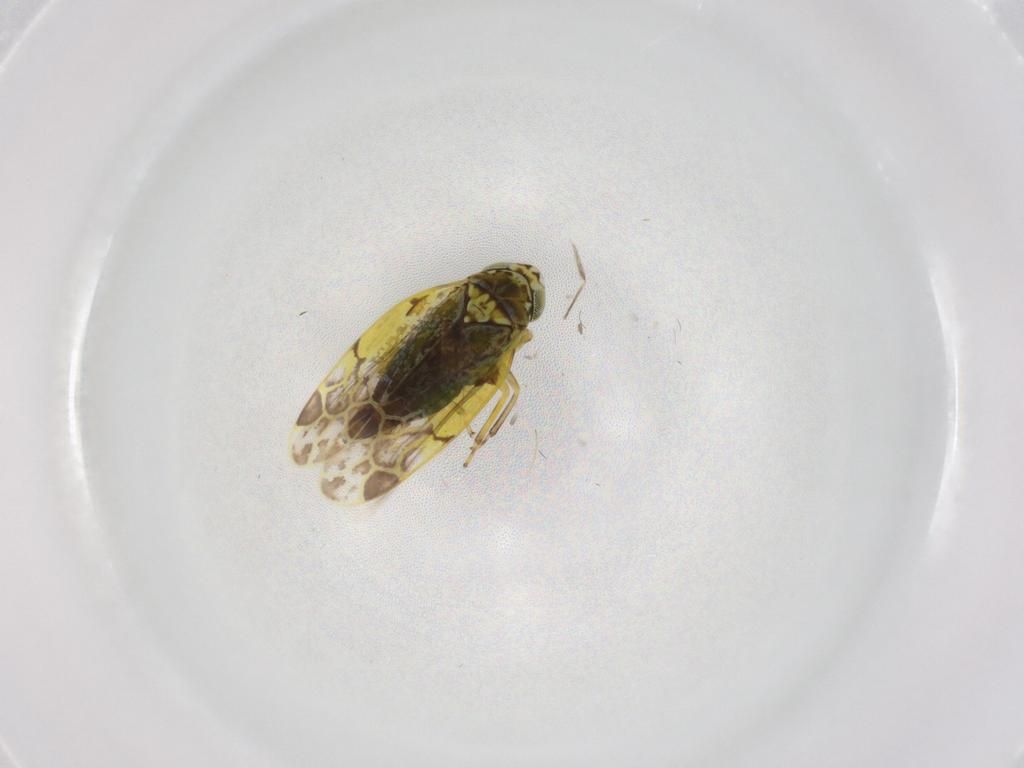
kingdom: Animalia
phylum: Arthropoda
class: Insecta
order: Hemiptera
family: Cicadellidae
